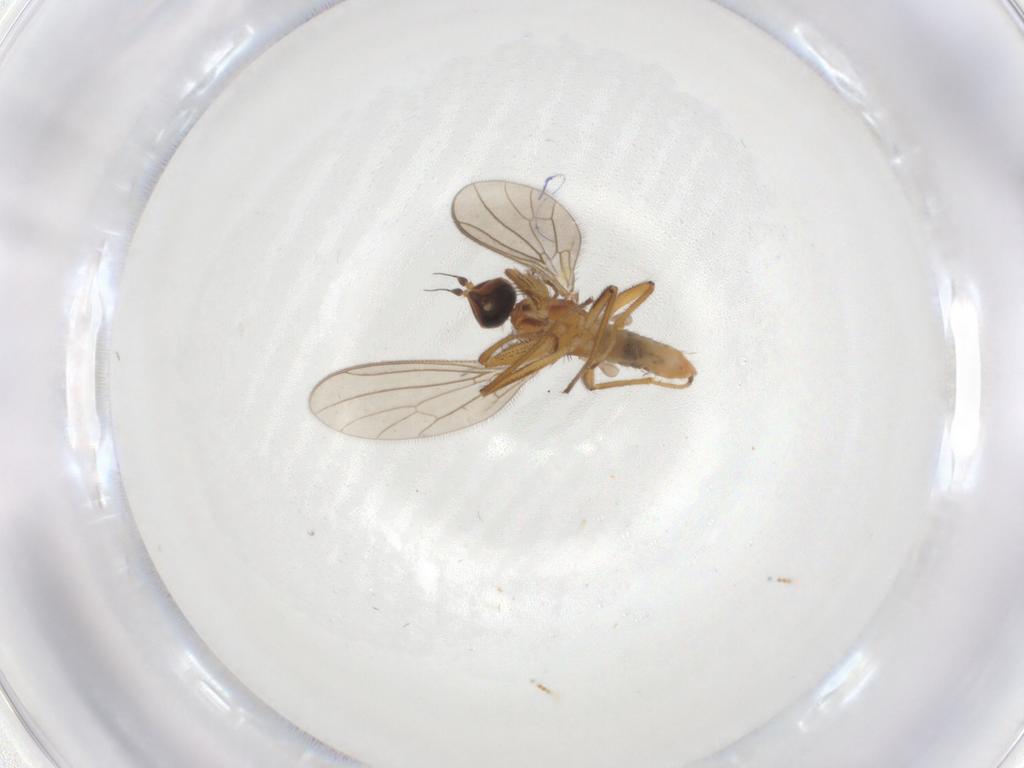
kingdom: Animalia
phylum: Arthropoda
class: Insecta
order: Diptera
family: Empididae
